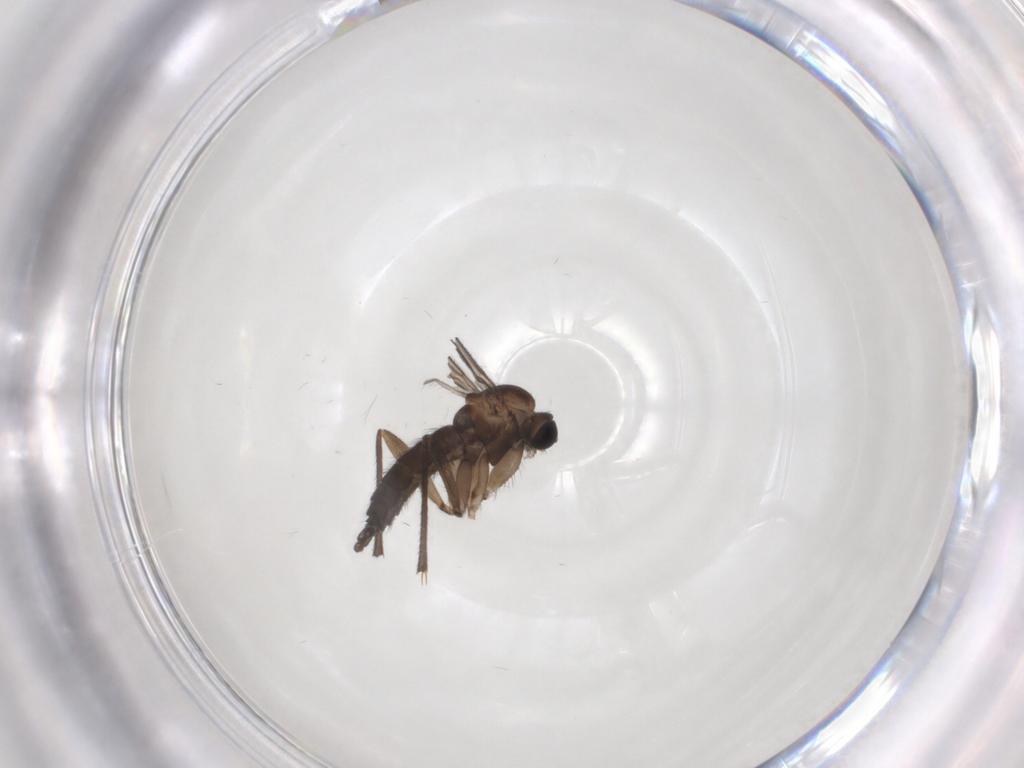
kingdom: Animalia
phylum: Arthropoda
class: Insecta
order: Diptera
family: Sciaridae
